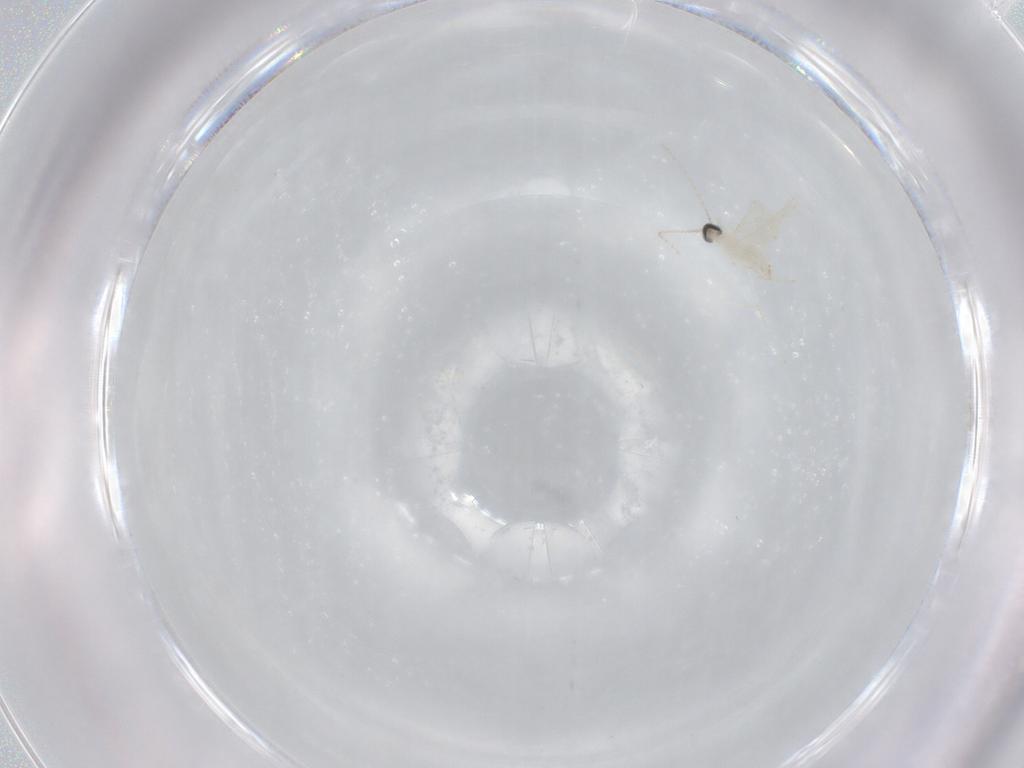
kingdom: Animalia
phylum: Arthropoda
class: Insecta
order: Diptera
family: Cecidomyiidae
